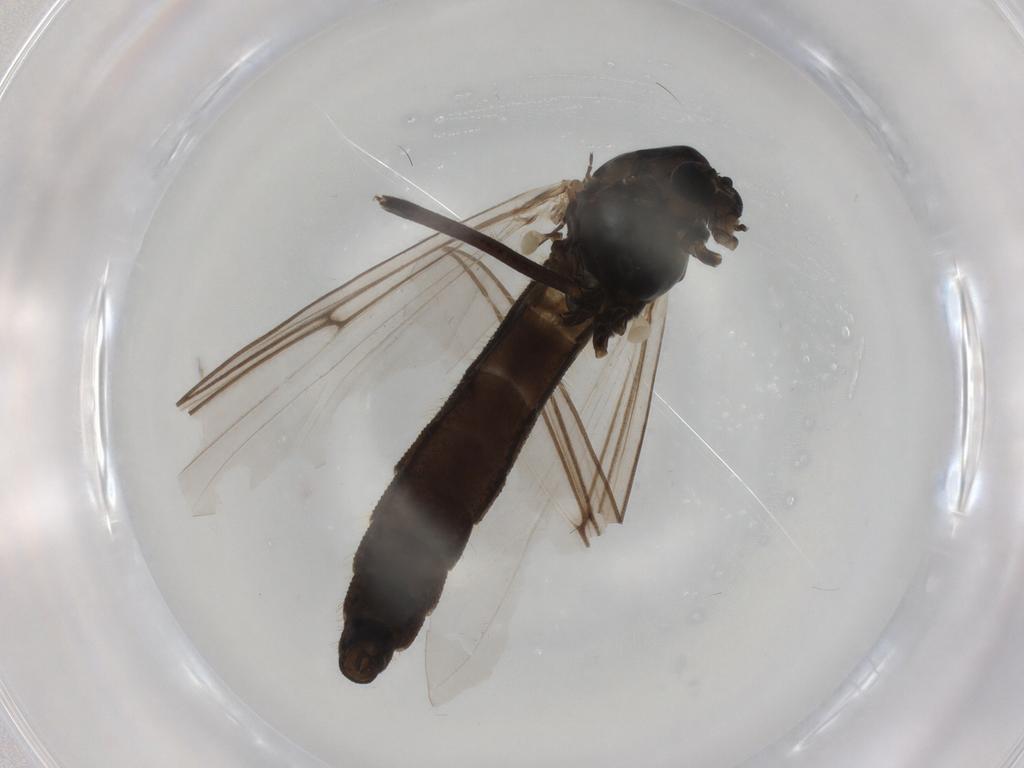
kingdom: Animalia
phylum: Arthropoda
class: Insecta
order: Diptera
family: Chironomidae
